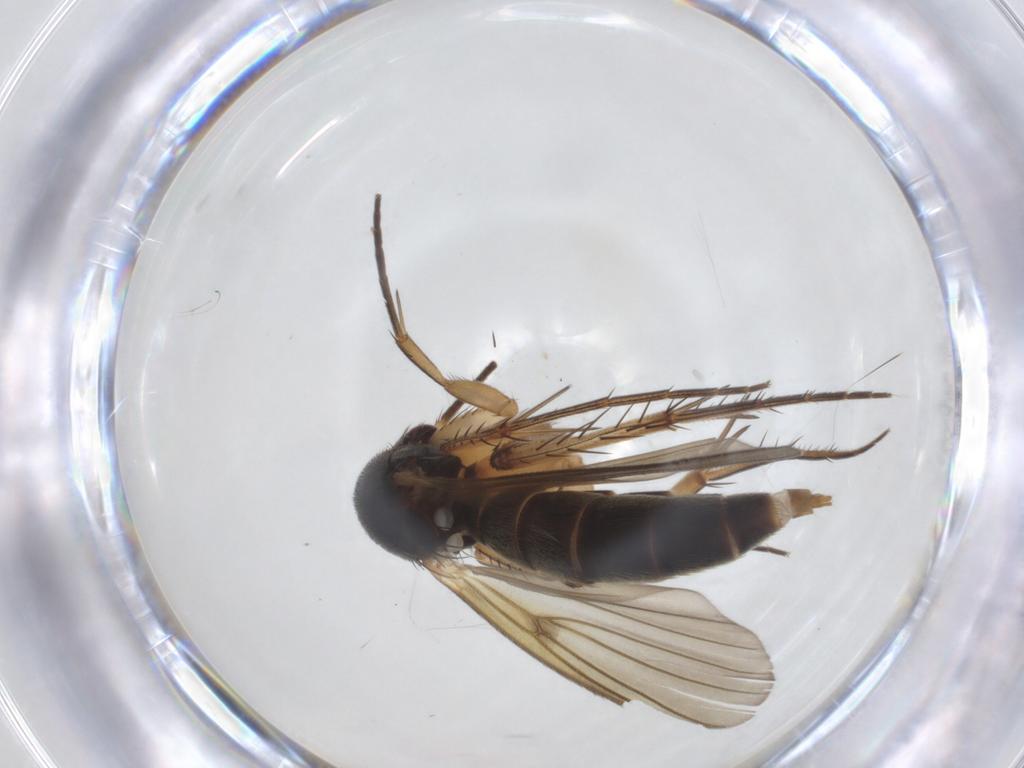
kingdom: Animalia
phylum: Arthropoda
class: Insecta
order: Diptera
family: Mycetophilidae
